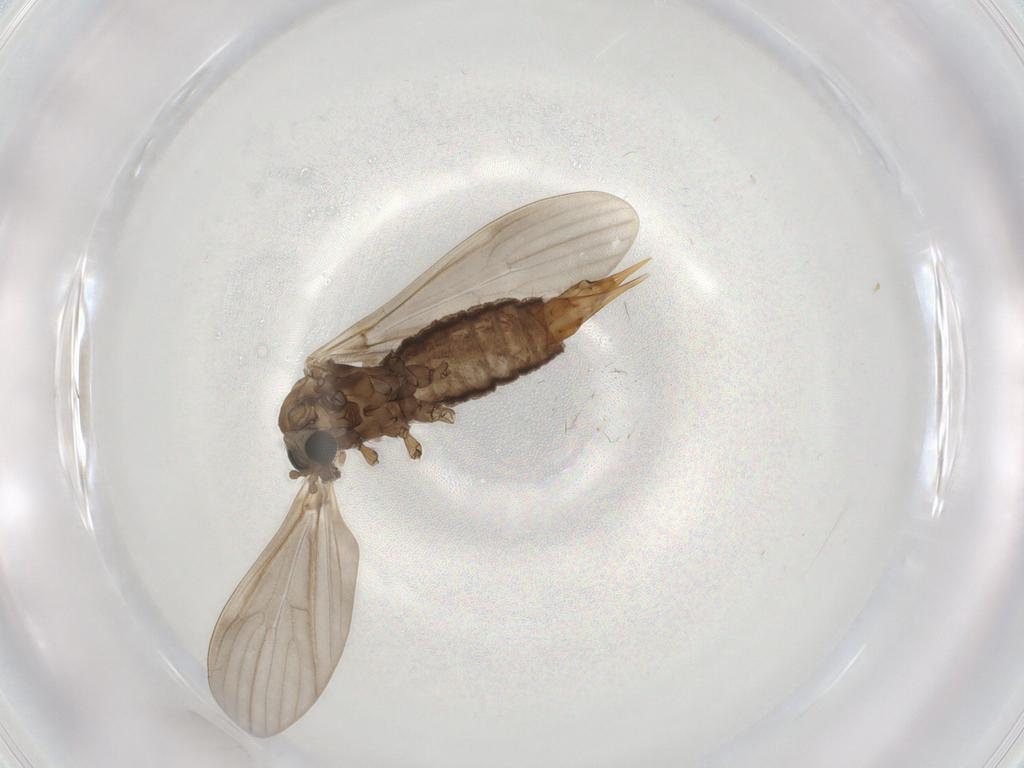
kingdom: Animalia
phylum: Arthropoda
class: Insecta
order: Diptera
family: Limoniidae
